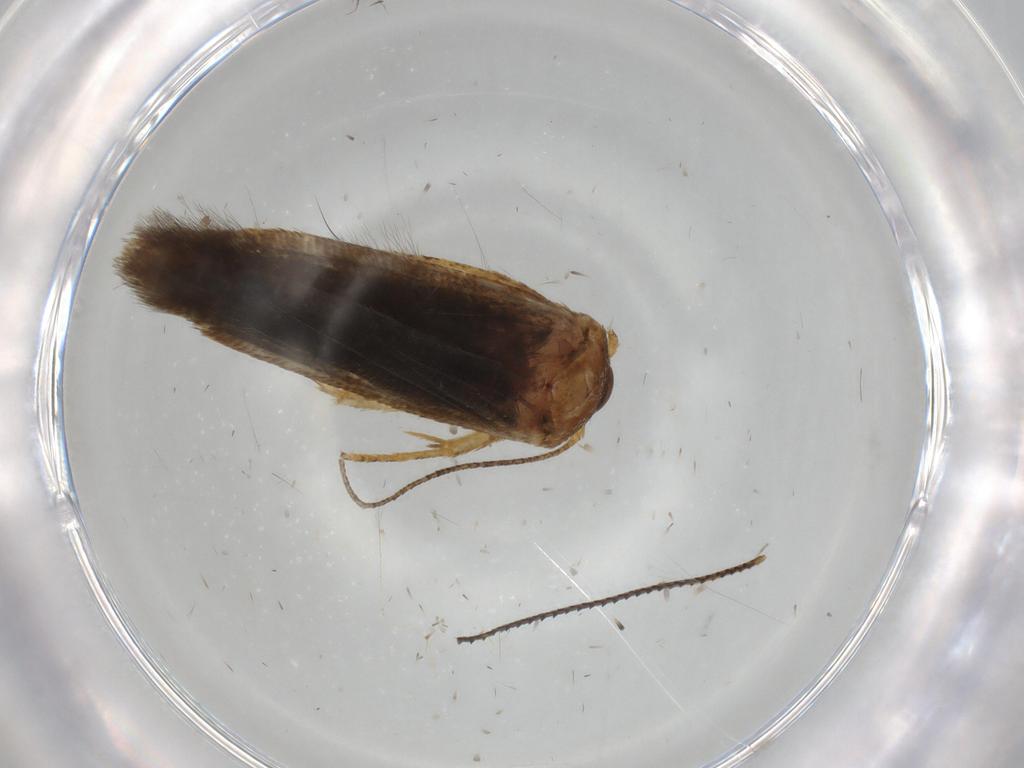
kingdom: Animalia
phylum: Arthropoda
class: Insecta
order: Lepidoptera
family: Blastobasidae
